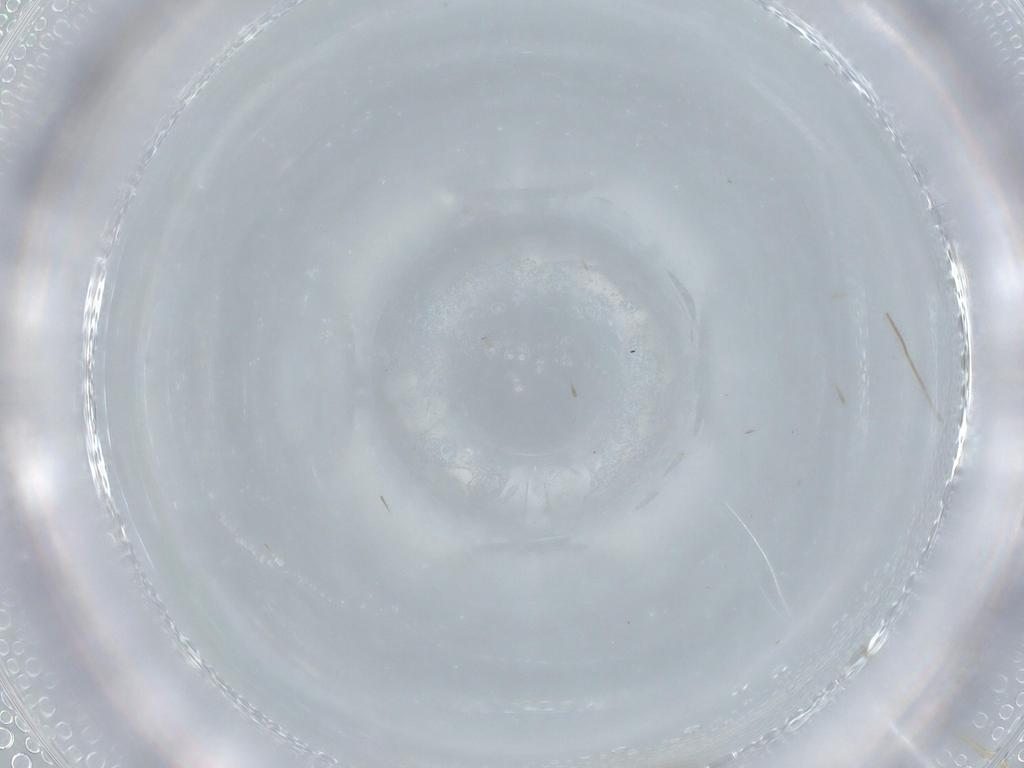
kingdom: Animalia
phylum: Arthropoda
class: Insecta
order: Diptera
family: Cecidomyiidae
